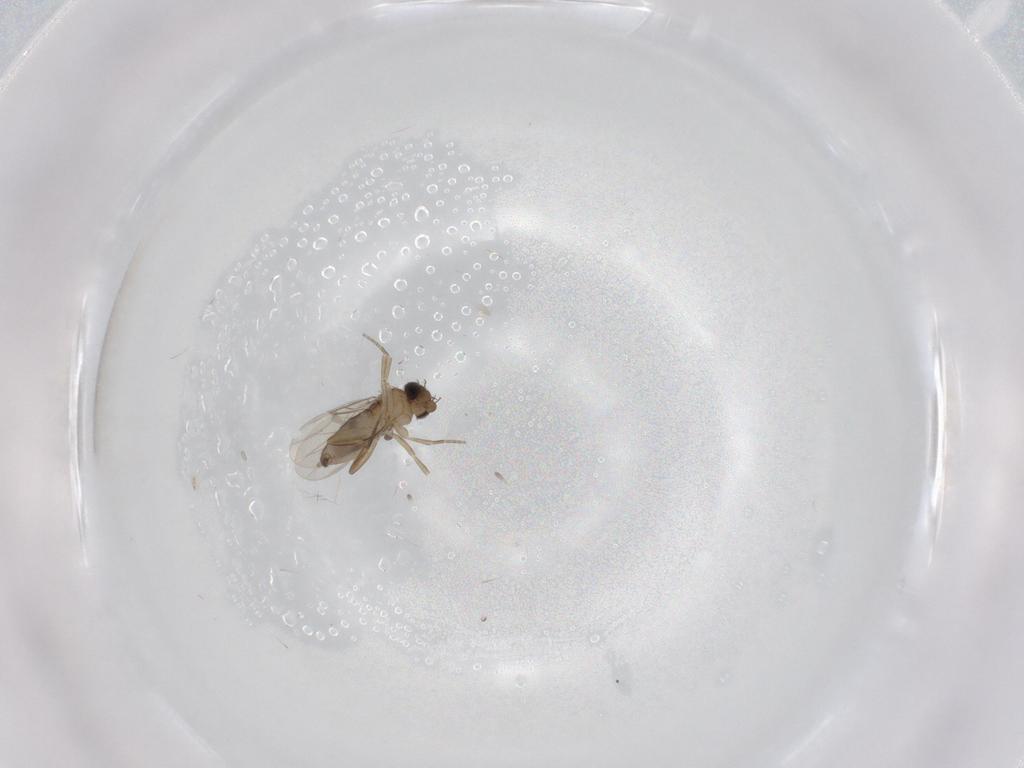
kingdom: Animalia
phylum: Arthropoda
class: Insecta
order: Diptera
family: Phoridae
